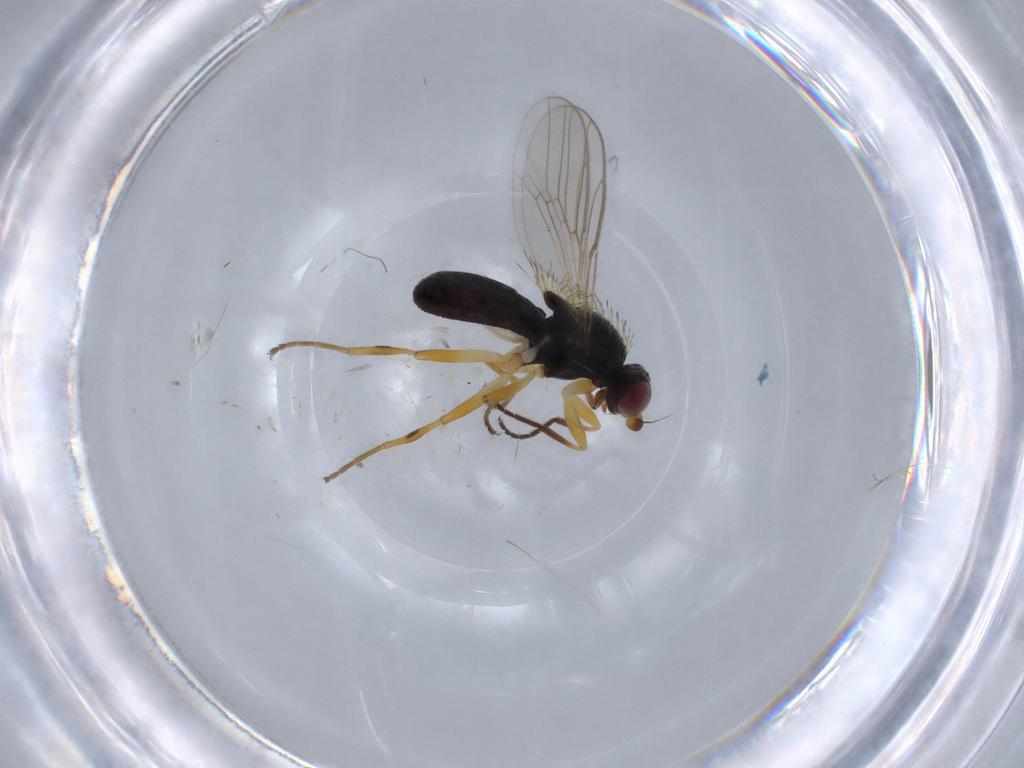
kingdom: Animalia
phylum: Arthropoda
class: Insecta
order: Diptera
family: Chloropidae
